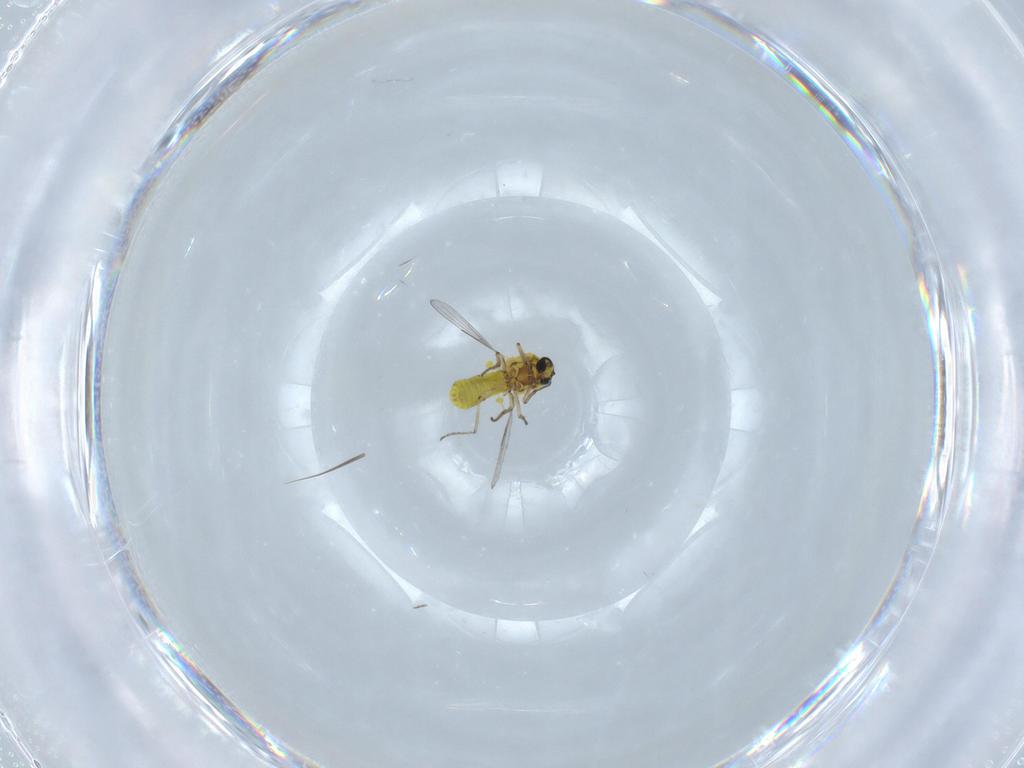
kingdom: Animalia
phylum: Arthropoda
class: Insecta
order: Diptera
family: Ceratopogonidae
